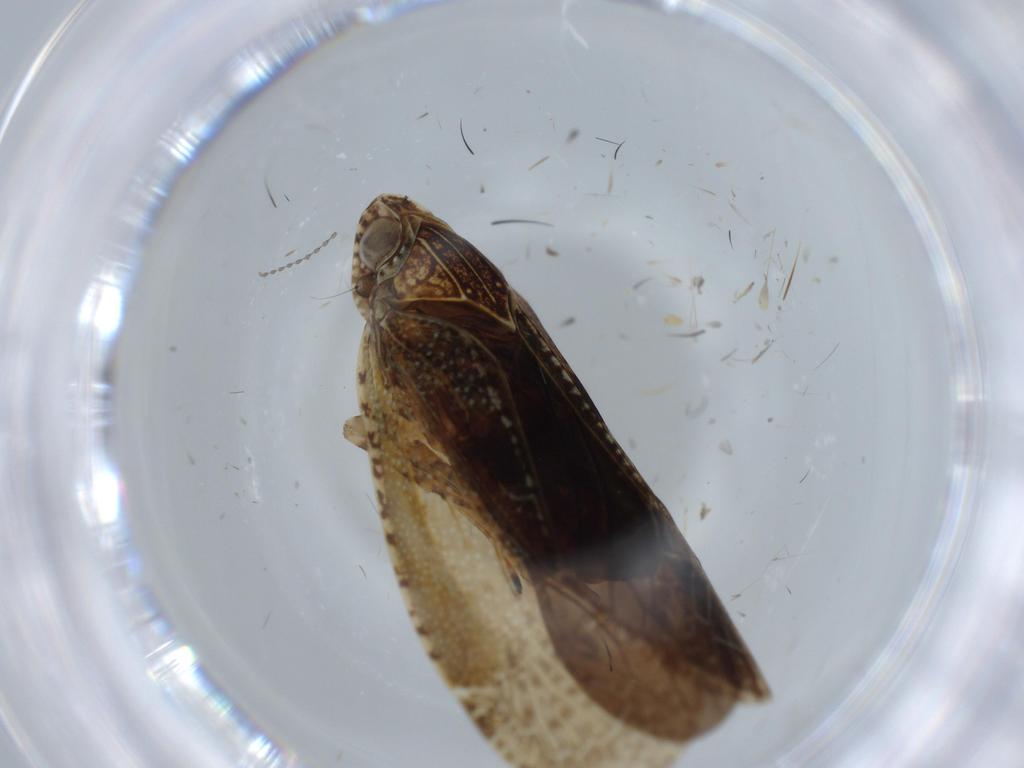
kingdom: Animalia
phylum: Arthropoda
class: Insecta
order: Hemiptera
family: Achilidae
